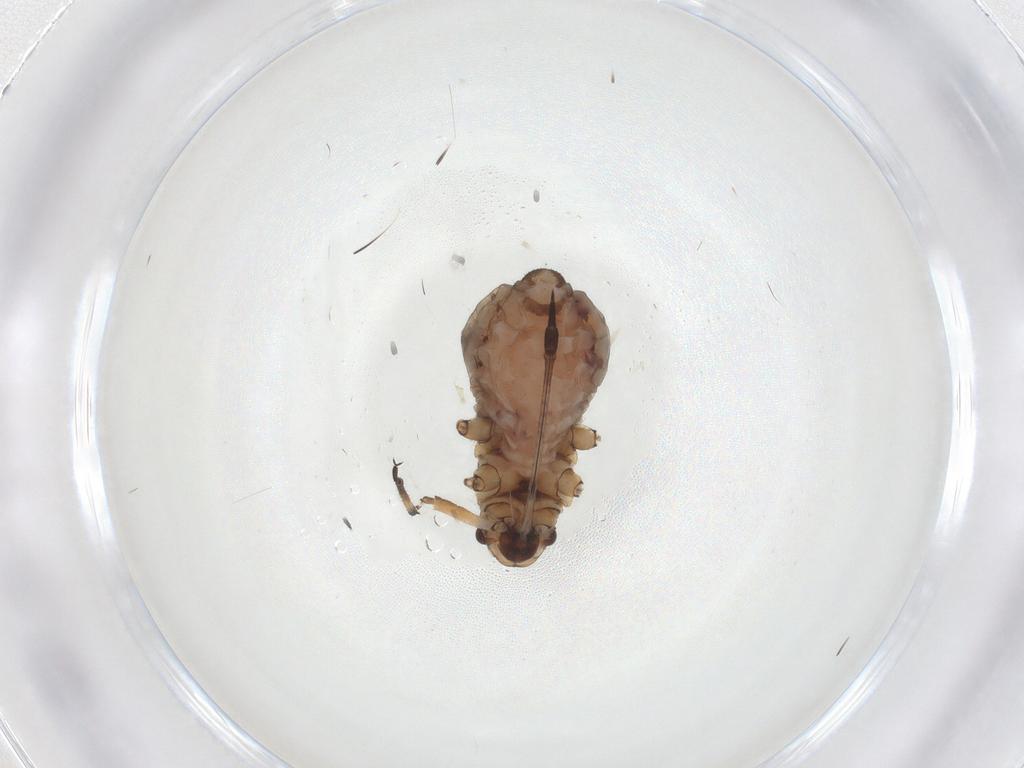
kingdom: Animalia
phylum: Arthropoda
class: Insecta
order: Hemiptera
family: Aphididae
